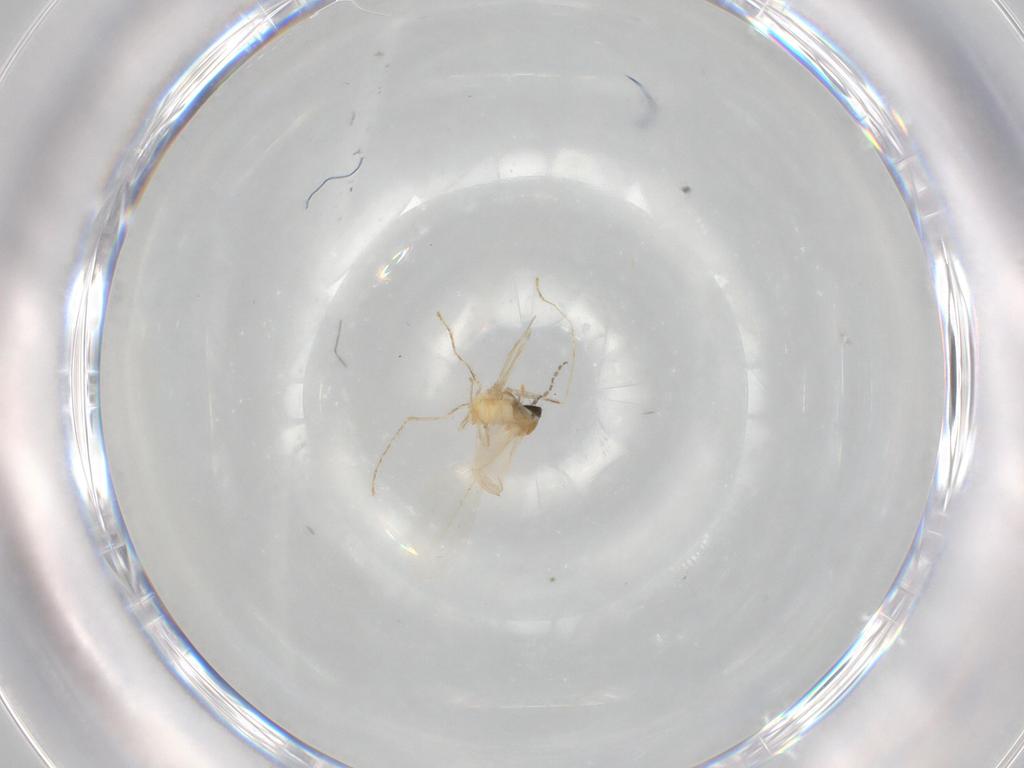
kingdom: Animalia
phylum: Arthropoda
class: Insecta
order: Diptera
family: Cecidomyiidae
